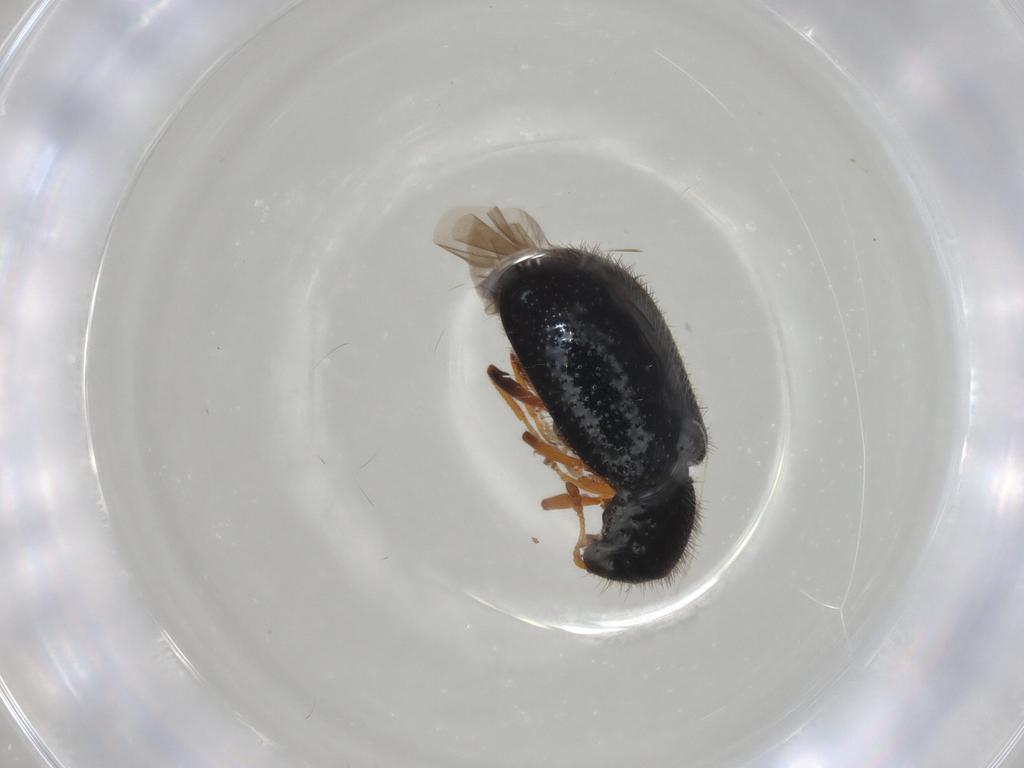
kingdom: Animalia
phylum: Arthropoda
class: Insecta
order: Coleoptera
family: Cleridae
